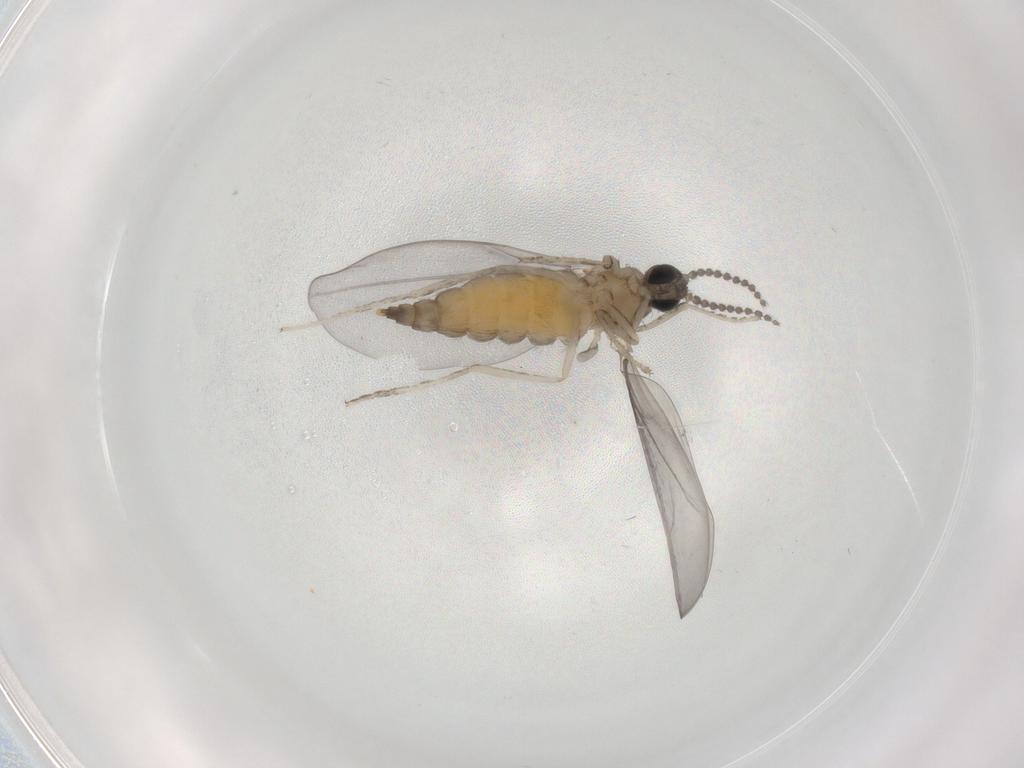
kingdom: Animalia
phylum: Arthropoda
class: Insecta
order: Diptera
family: Cecidomyiidae
